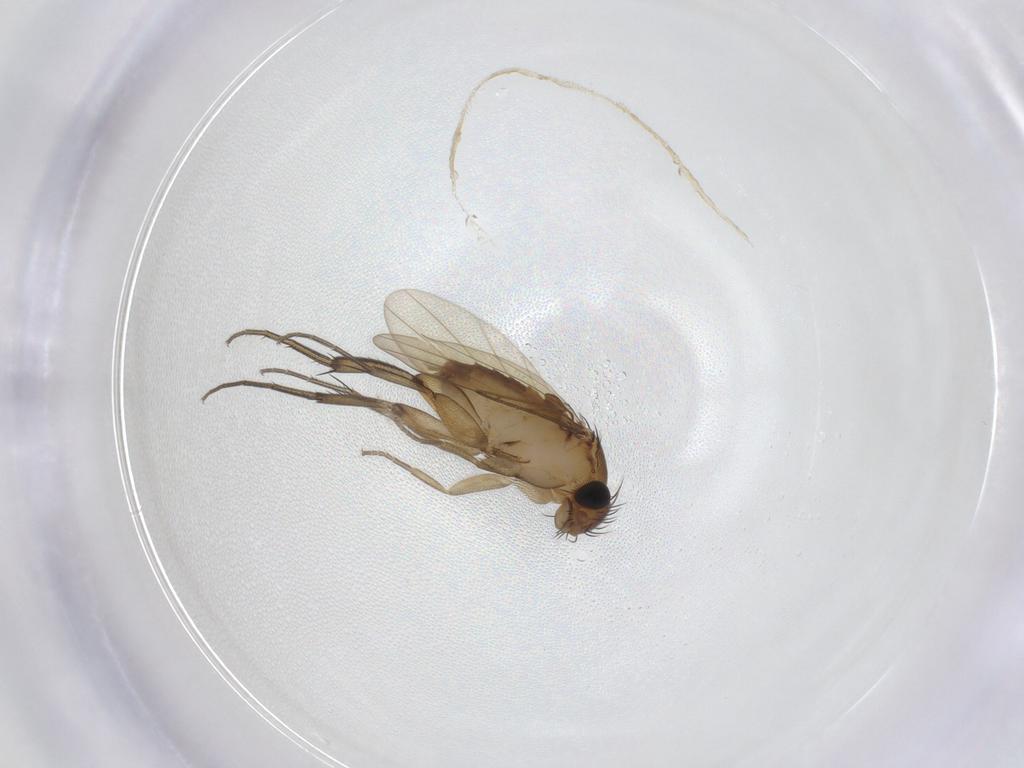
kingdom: Animalia
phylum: Arthropoda
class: Insecta
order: Diptera
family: Phoridae
